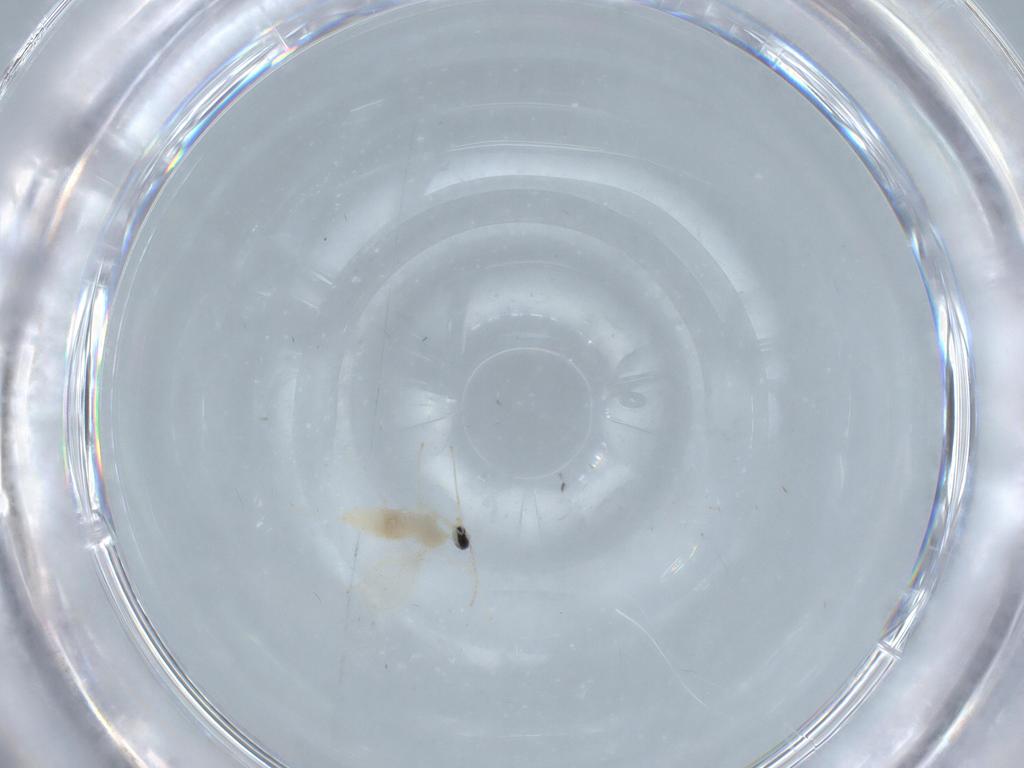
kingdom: Animalia
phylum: Arthropoda
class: Insecta
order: Diptera
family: Cecidomyiidae
